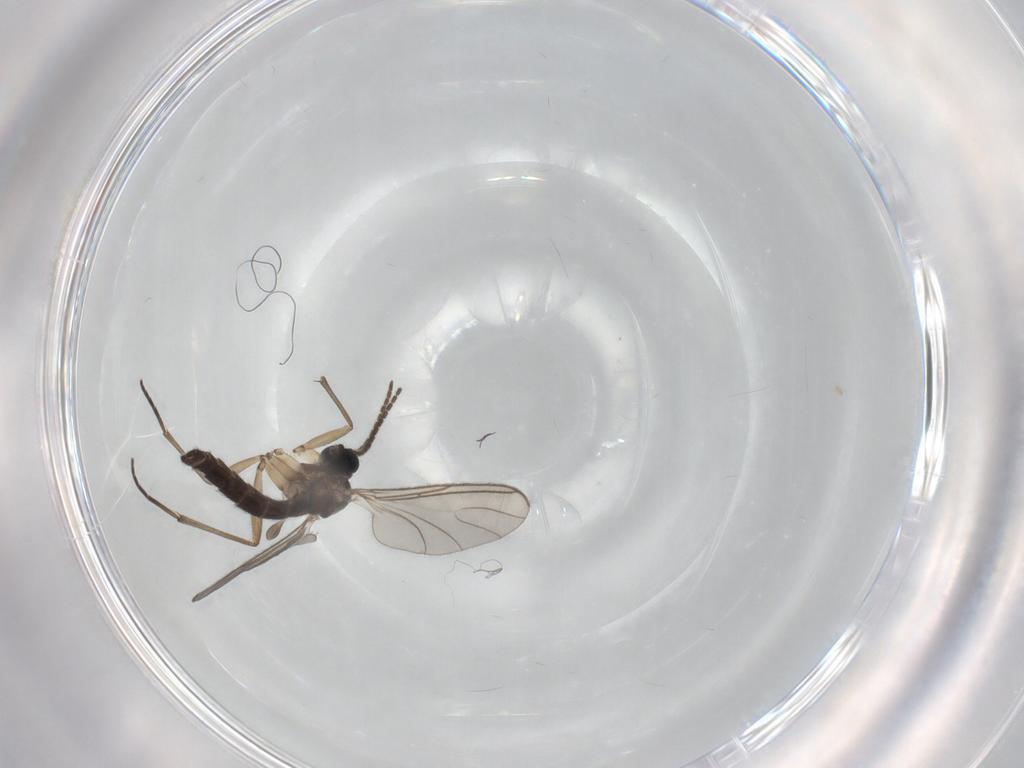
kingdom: Animalia
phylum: Arthropoda
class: Insecta
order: Diptera
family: Sciaridae
